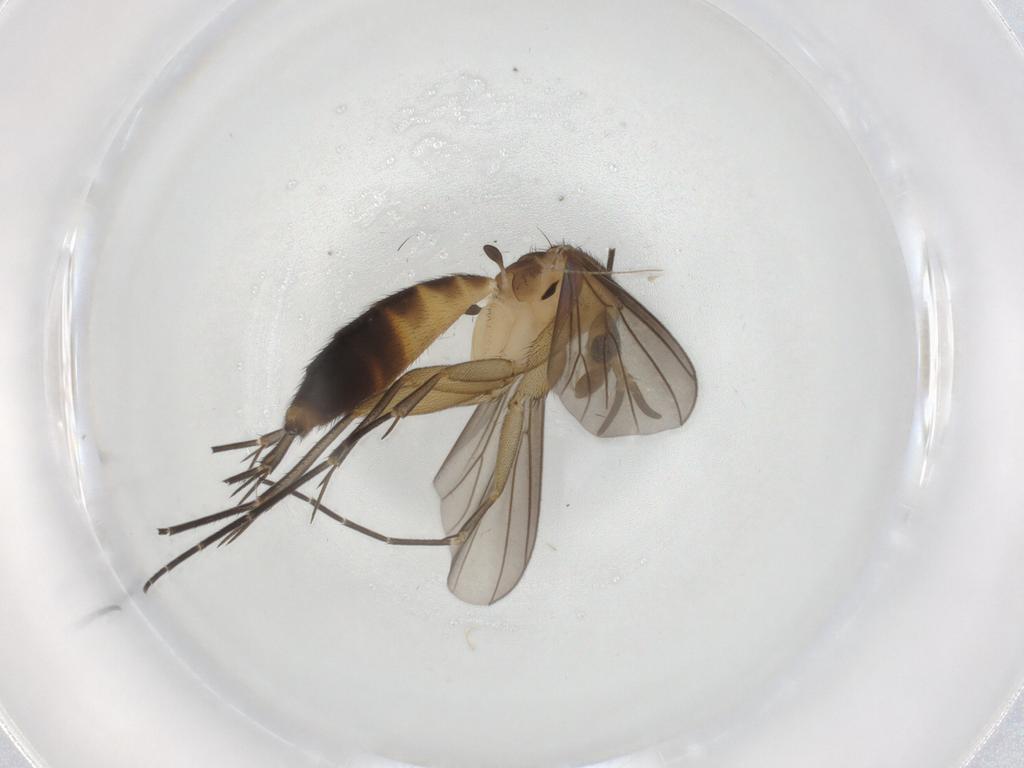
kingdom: Animalia
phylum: Arthropoda
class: Insecta
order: Diptera
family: Mycetophilidae
